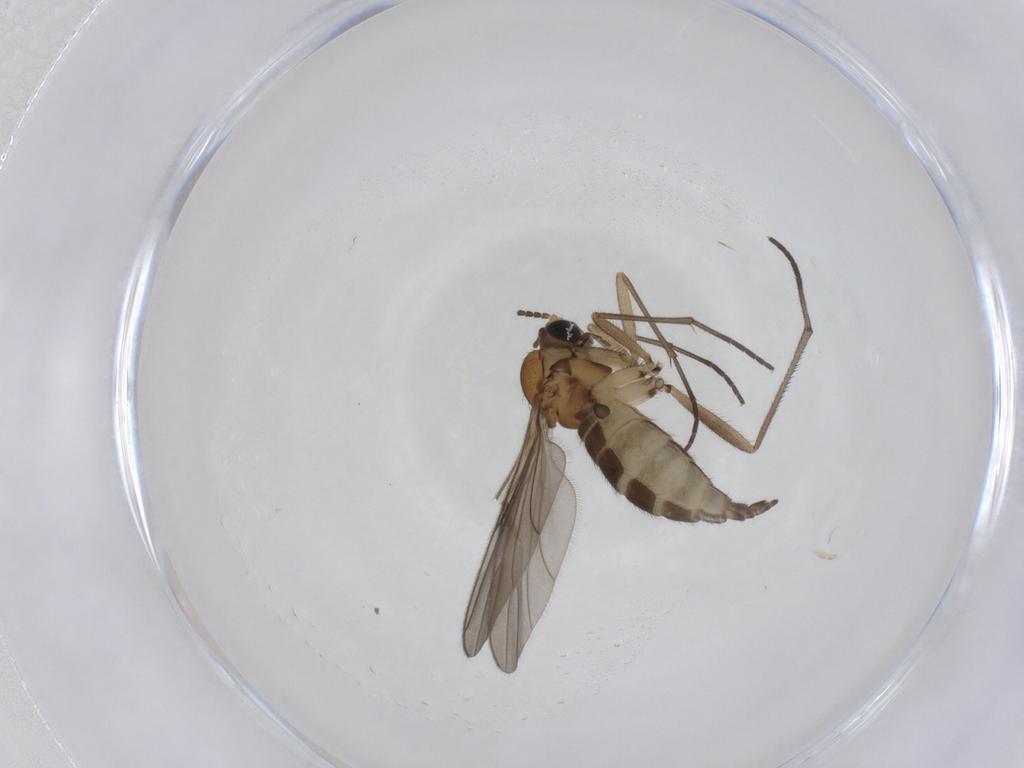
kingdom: Animalia
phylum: Arthropoda
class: Insecta
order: Diptera
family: Sciaridae
